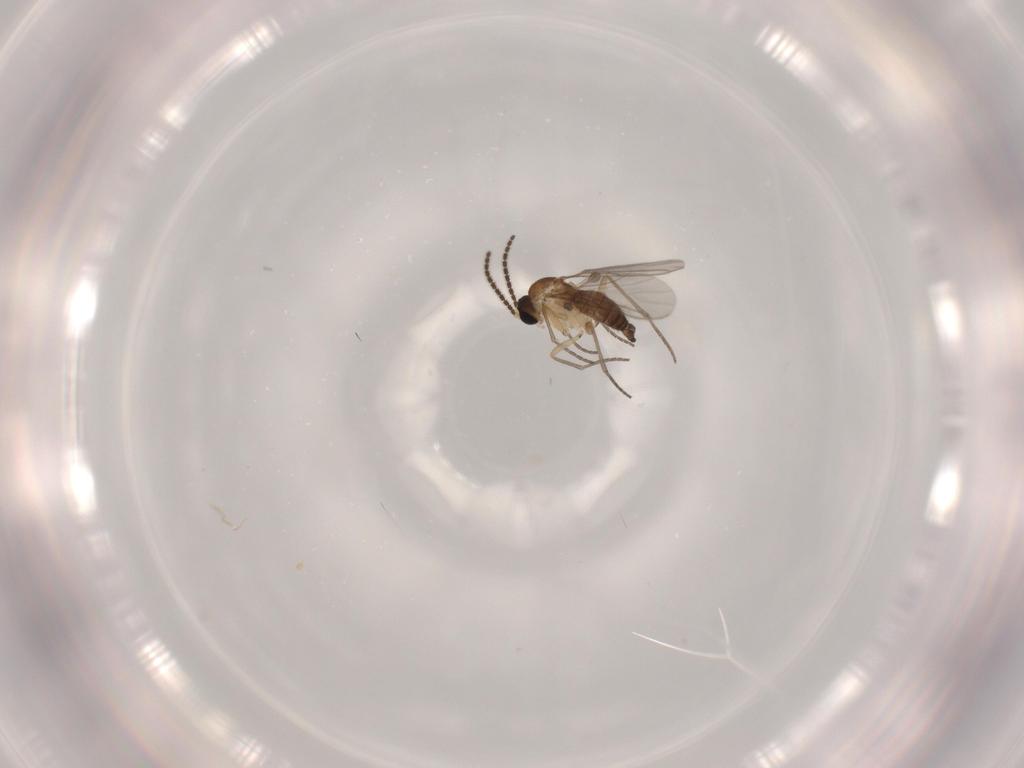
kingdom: Animalia
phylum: Arthropoda
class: Insecta
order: Diptera
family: Sciaridae
